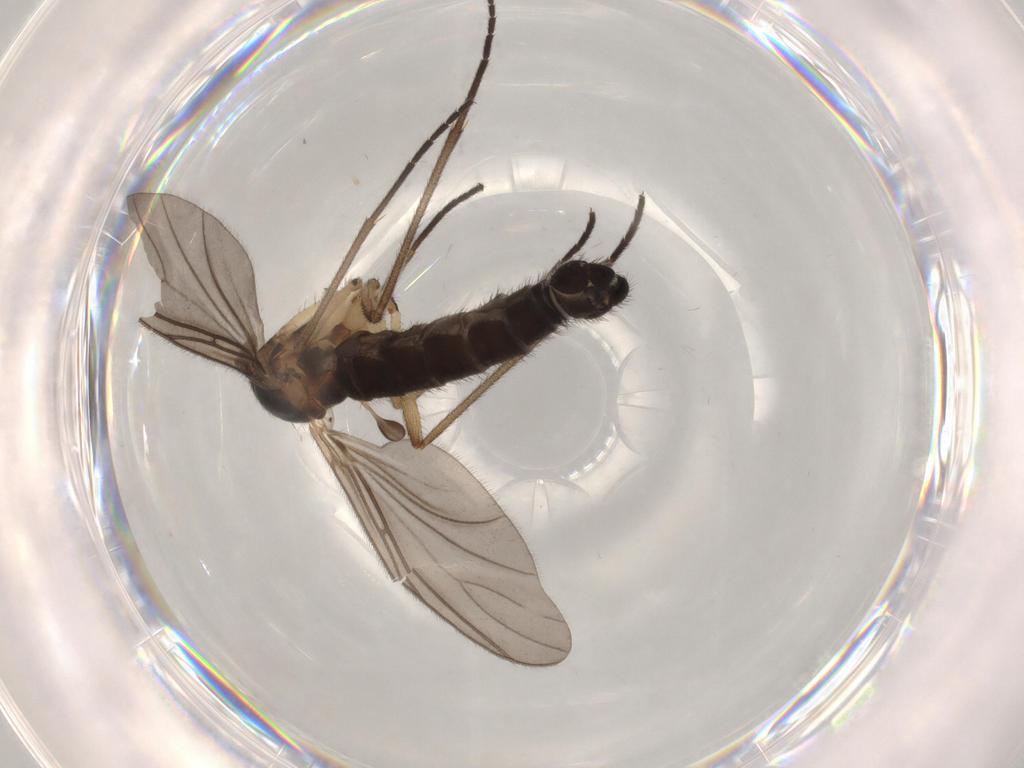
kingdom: Animalia
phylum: Arthropoda
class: Insecta
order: Diptera
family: Sciaridae
